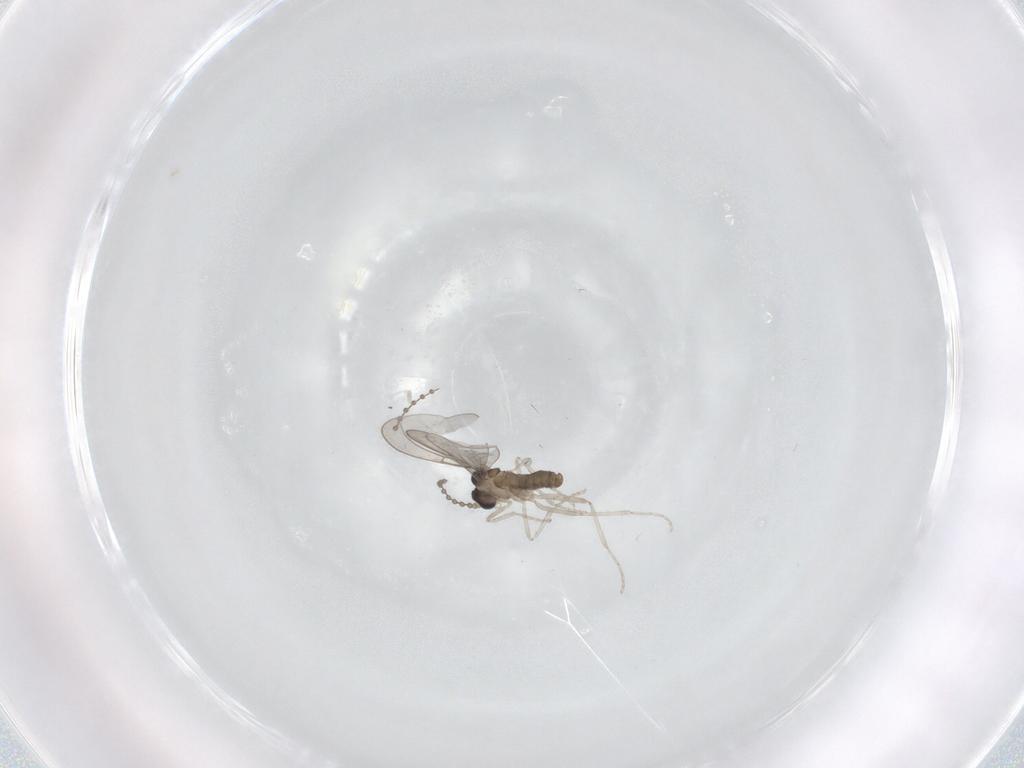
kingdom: Animalia
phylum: Arthropoda
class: Insecta
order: Diptera
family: Cecidomyiidae
